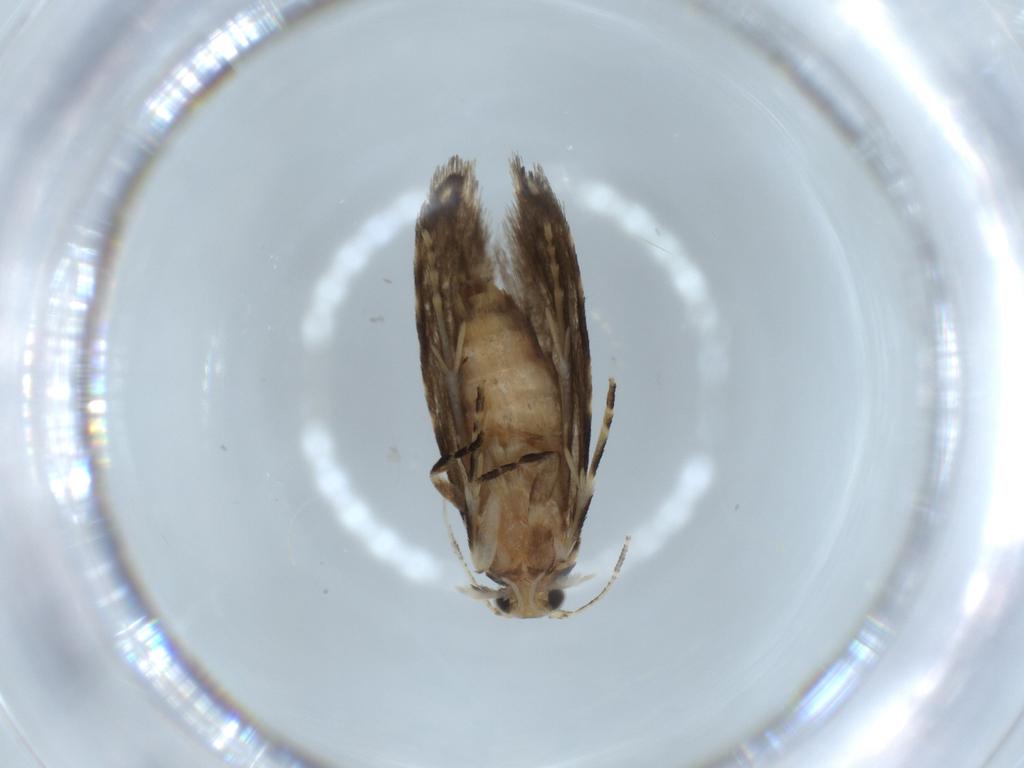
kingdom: Animalia
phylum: Arthropoda
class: Insecta
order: Lepidoptera
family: Tineidae
